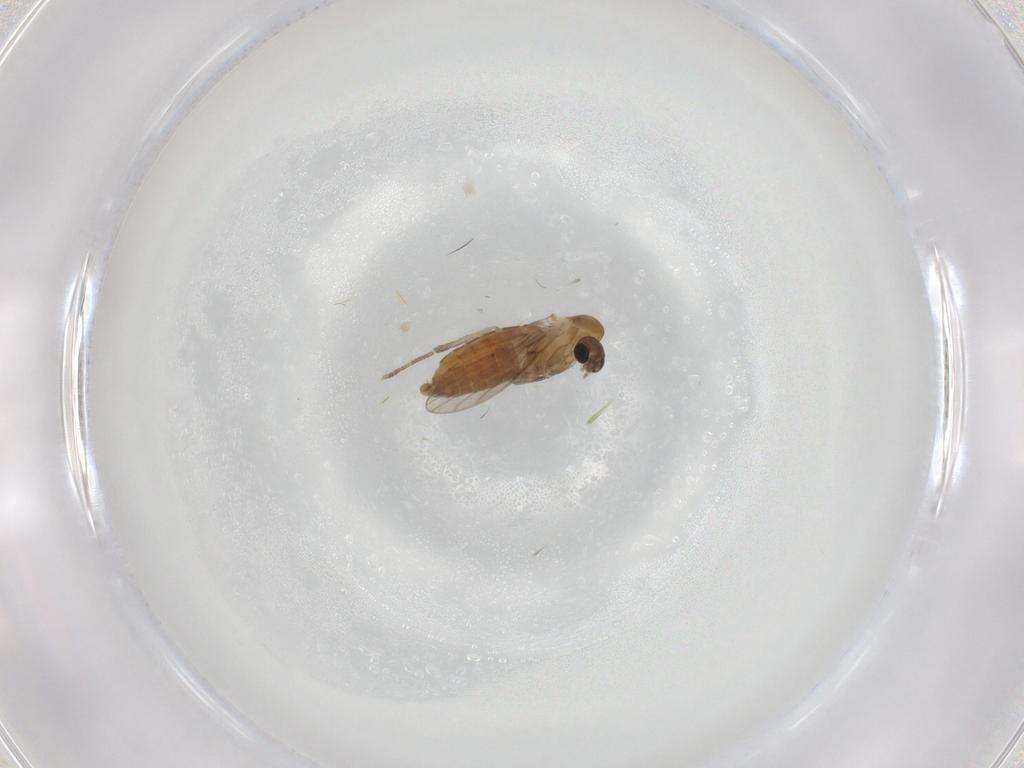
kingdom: Animalia
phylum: Arthropoda
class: Insecta
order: Diptera
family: Psychodidae
